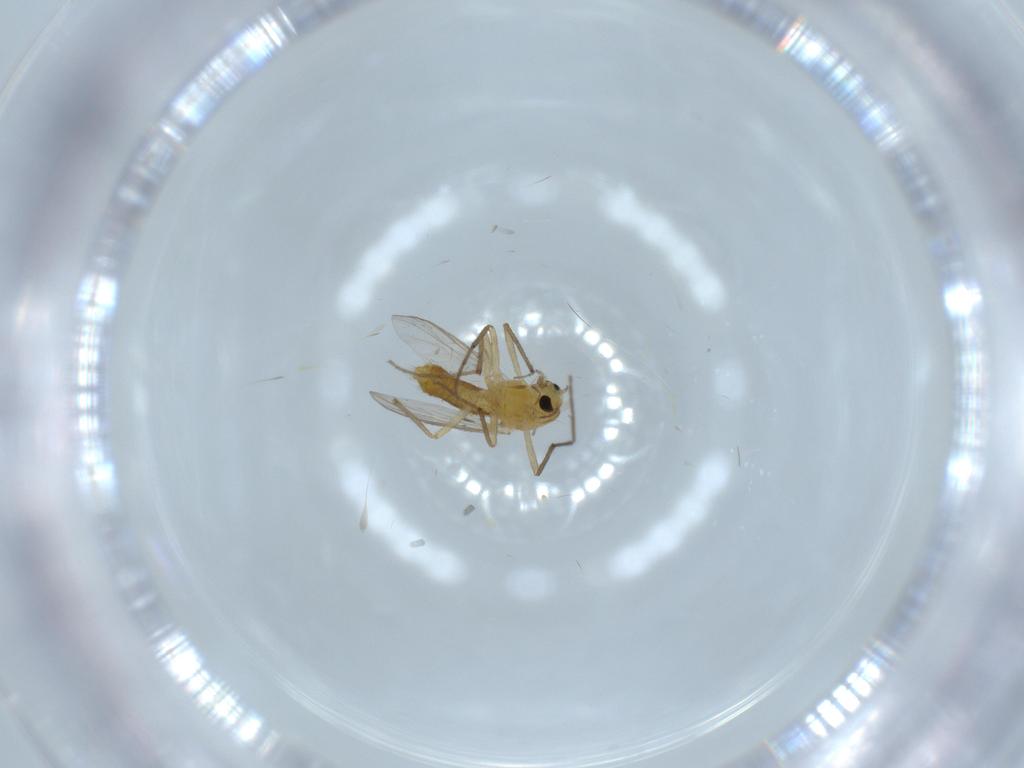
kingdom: Animalia
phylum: Arthropoda
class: Insecta
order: Diptera
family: Chironomidae
